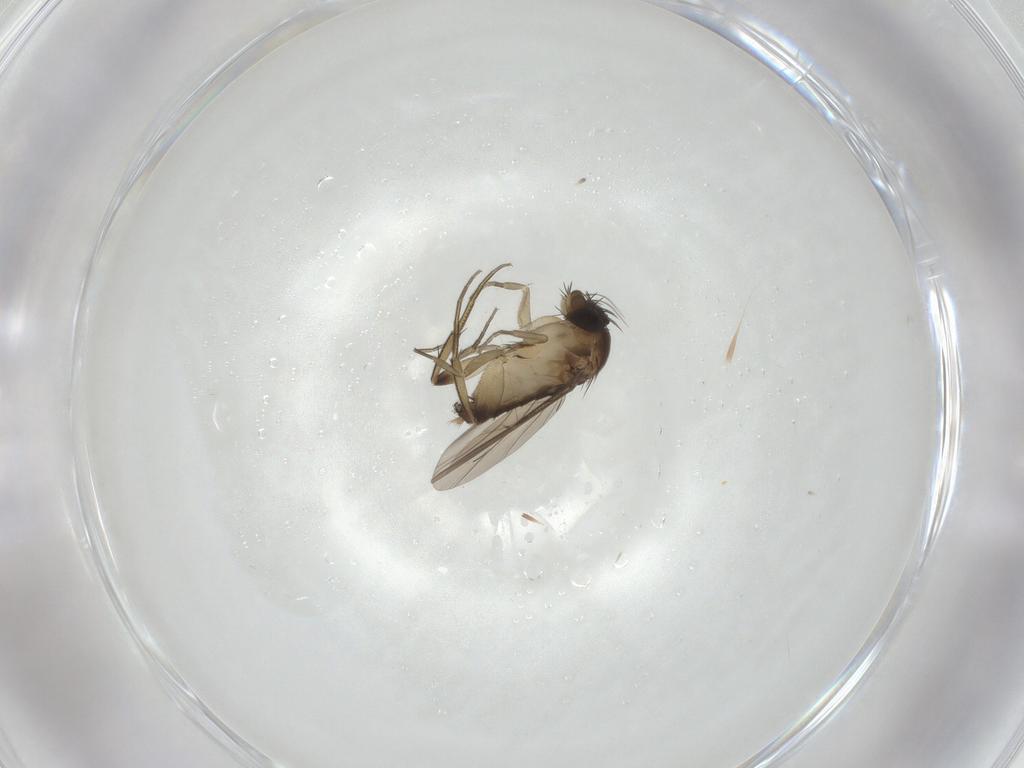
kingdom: Animalia
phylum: Arthropoda
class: Insecta
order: Diptera
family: Phoridae
